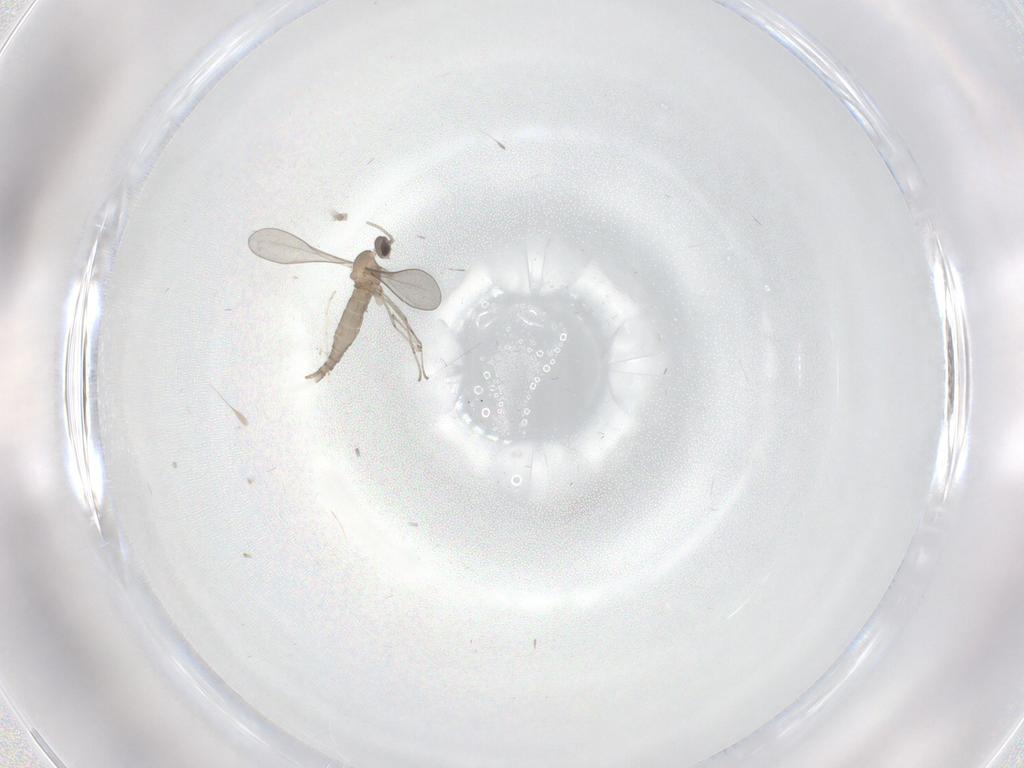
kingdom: Animalia
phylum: Arthropoda
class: Insecta
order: Diptera
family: Cecidomyiidae
